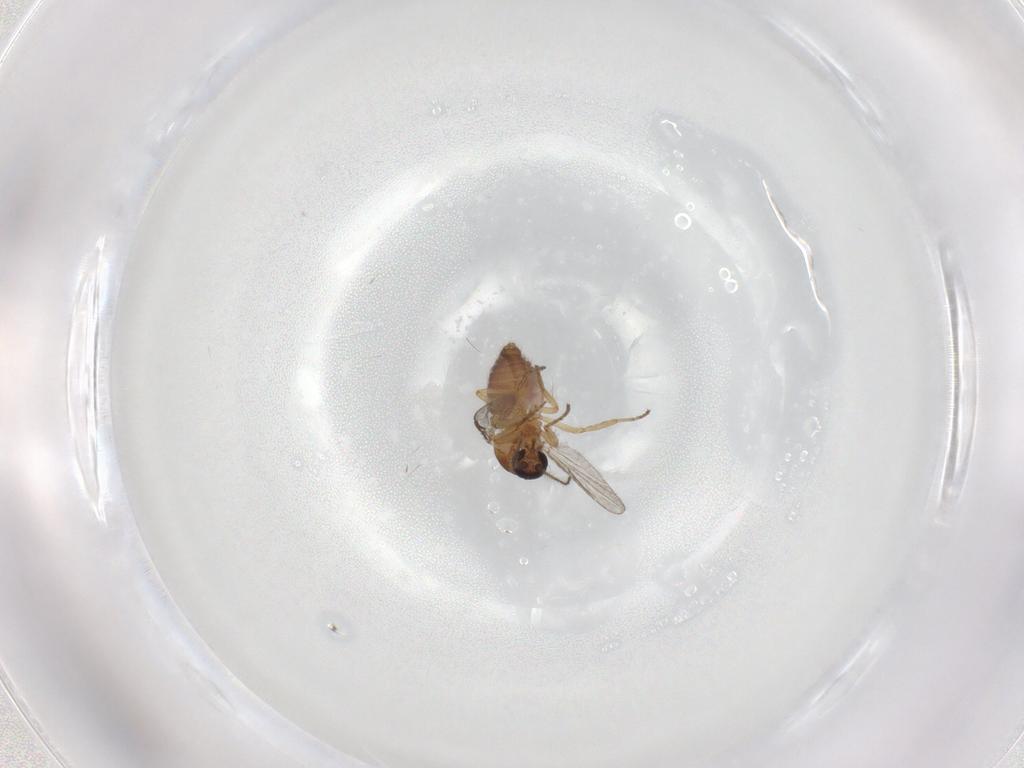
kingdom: Animalia
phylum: Arthropoda
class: Insecta
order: Diptera
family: Ceratopogonidae
